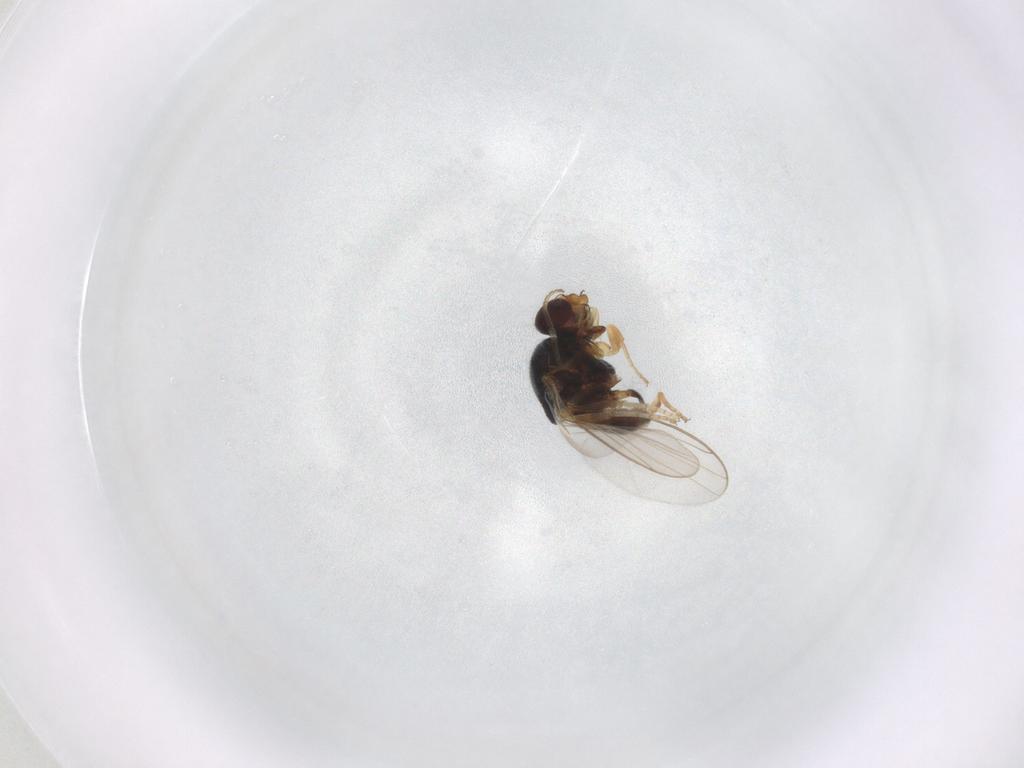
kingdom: Animalia
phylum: Arthropoda
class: Insecta
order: Diptera
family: Chloropidae
